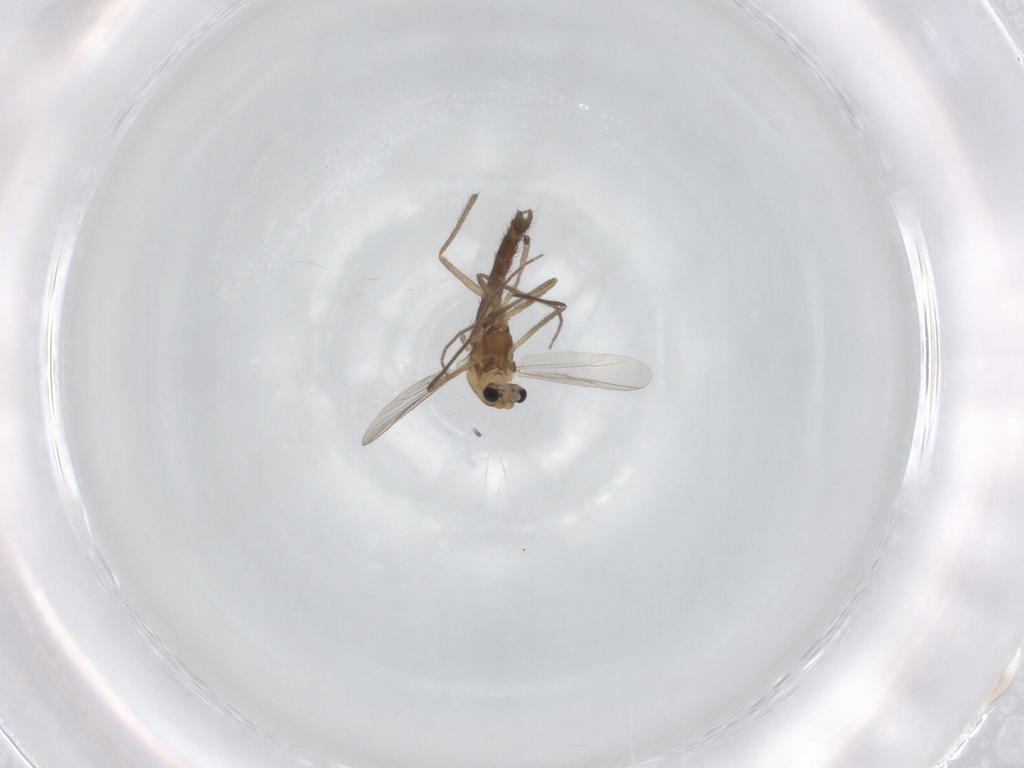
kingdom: Animalia
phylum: Arthropoda
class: Insecta
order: Diptera
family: Chironomidae
